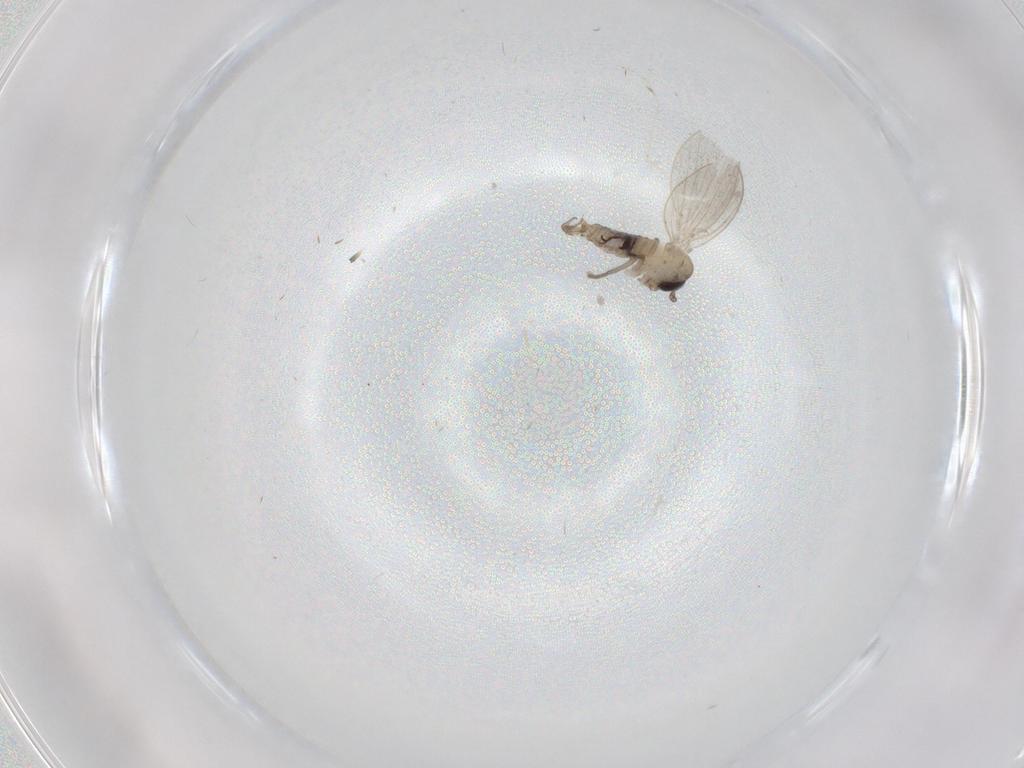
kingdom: Animalia
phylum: Arthropoda
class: Insecta
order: Diptera
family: Psychodidae
